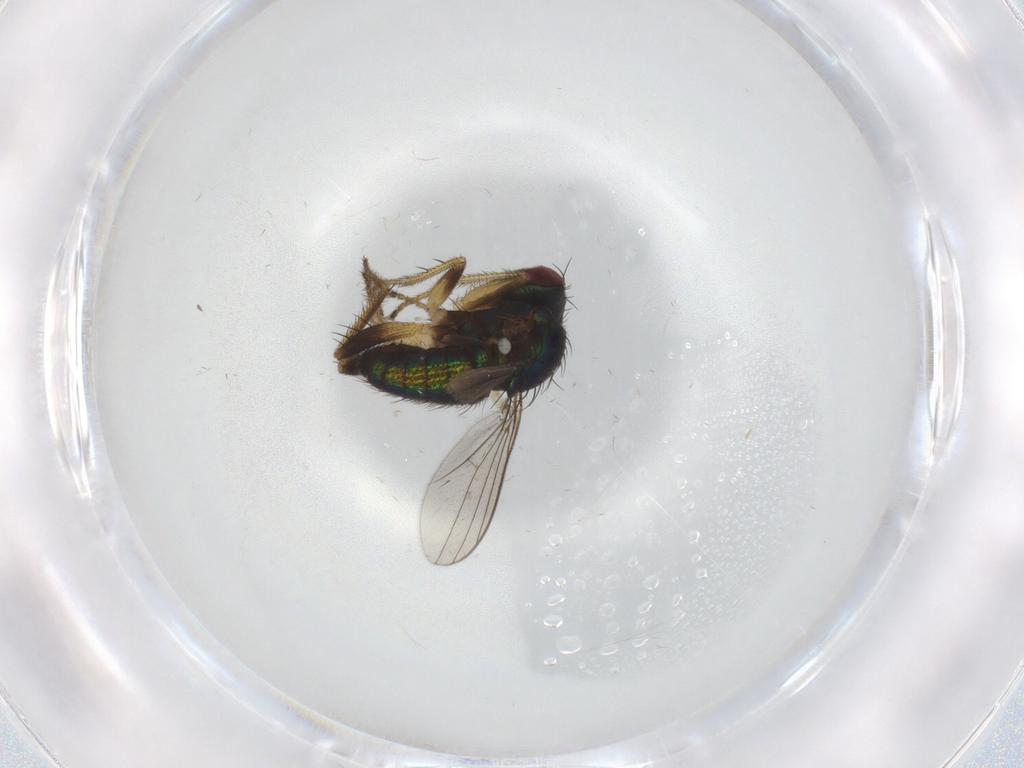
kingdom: Animalia
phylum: Arthropoda
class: Insecta
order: Diptera
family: Dolichopodidae
